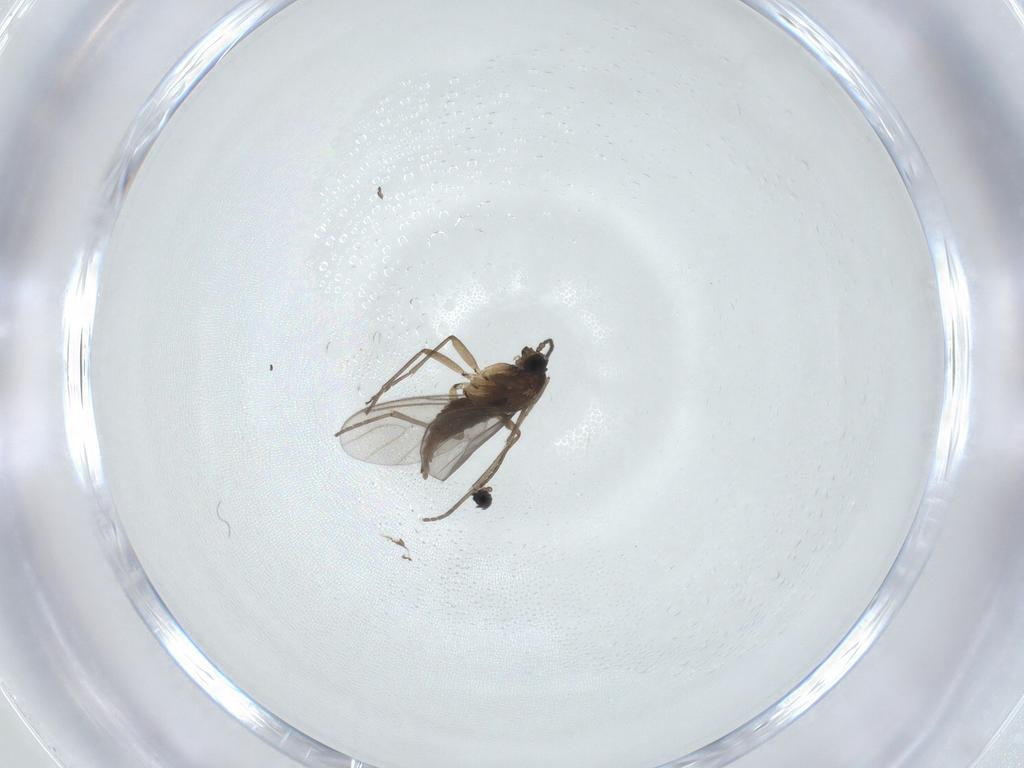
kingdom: Animalia
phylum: Arthropoda
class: Insecta
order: Diptera
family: Sciaridae
